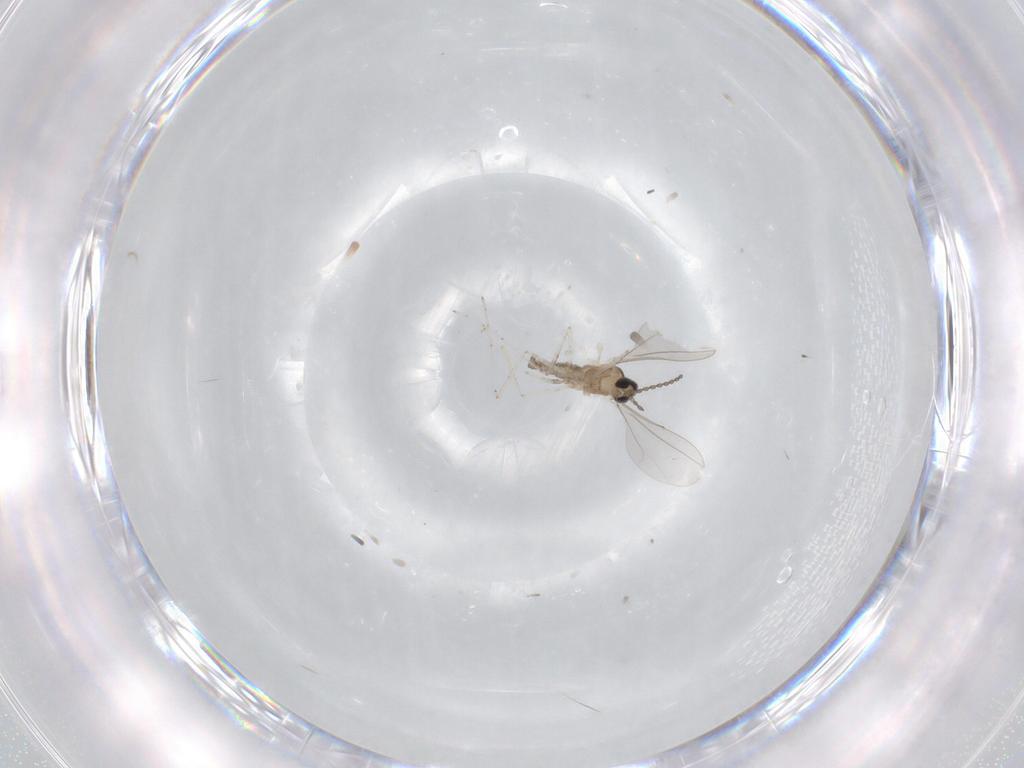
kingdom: Animalia
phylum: Arthropoda
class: Insecta
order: Diptera
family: Cecidomyiidae
